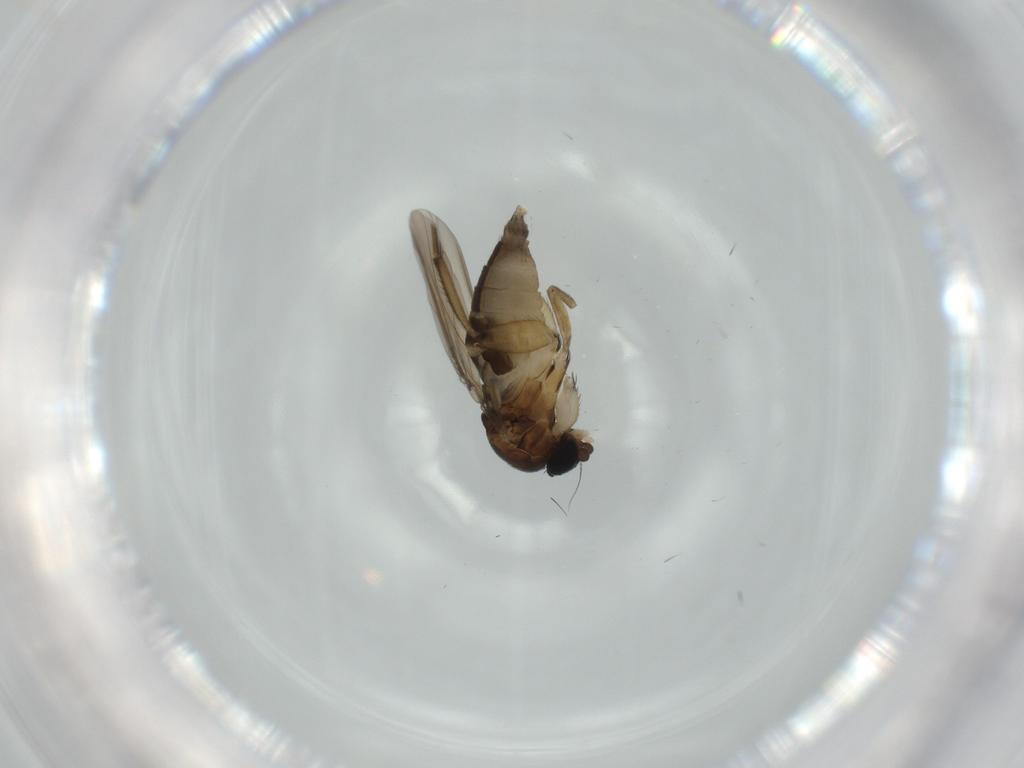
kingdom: Animalia
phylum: Arthropoda
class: Insecta
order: Diptera
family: Phoridae
